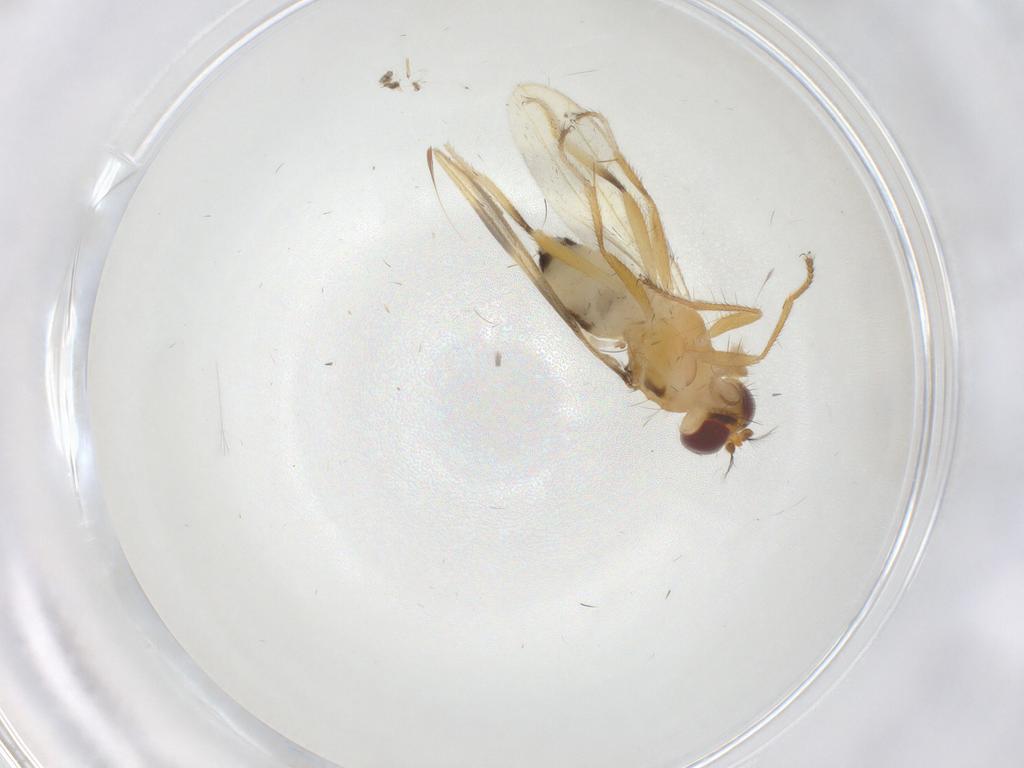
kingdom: Animalia
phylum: Arthropoda
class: Insecta
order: Diptera
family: Periscelididae
